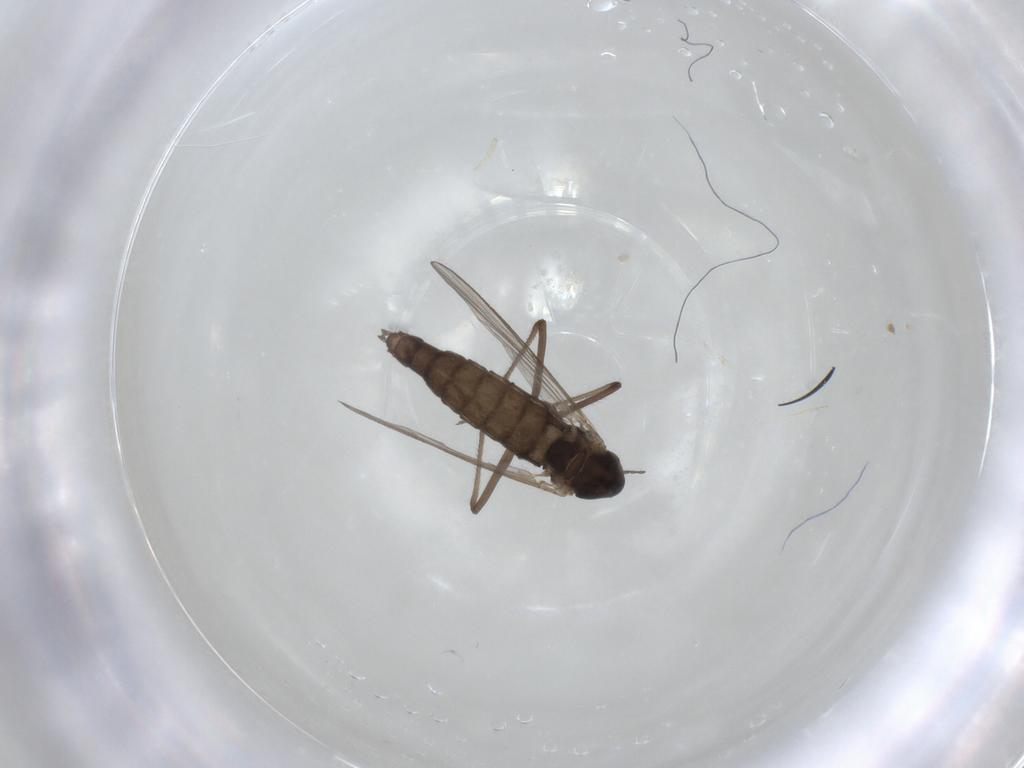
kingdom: Animalia
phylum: Arthropoda
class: Insecta
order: Diptera
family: Chironomidae
